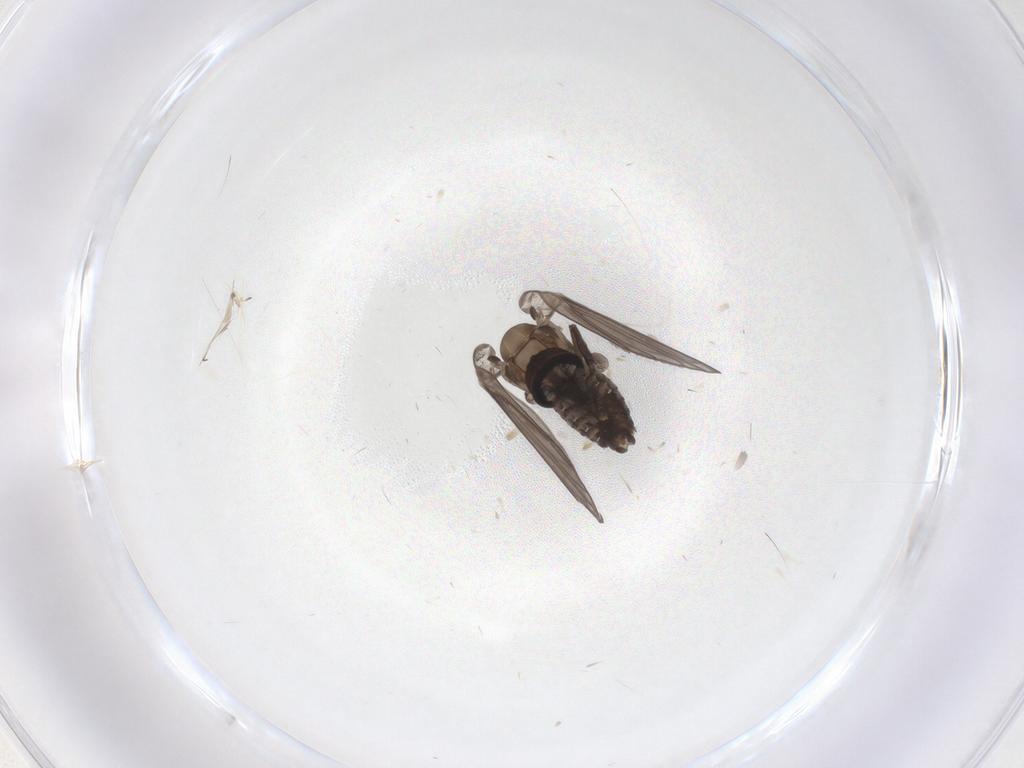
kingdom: Animalia
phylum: Arthropoda
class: Insecta
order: Diptera
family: Psychodidae
